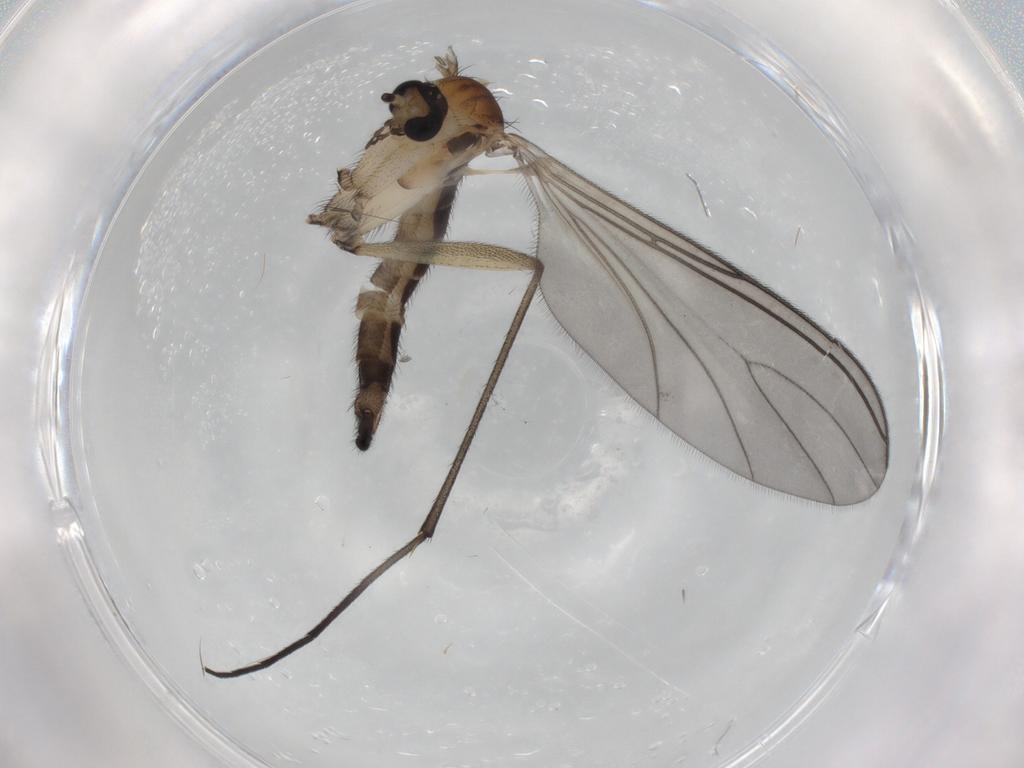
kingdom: Animalia
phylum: Arthropoda
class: Insecta
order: Diptera
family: Sciaridae
